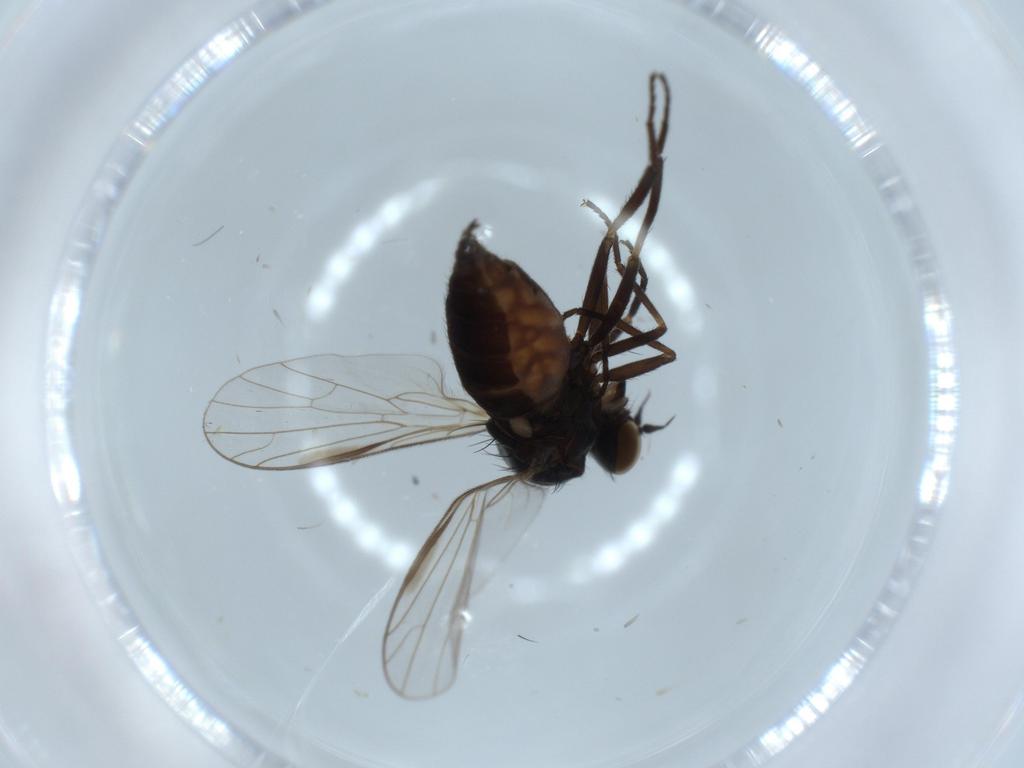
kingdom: Animalia
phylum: Arthropoda
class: Insecta
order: Diptera
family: Empididae
